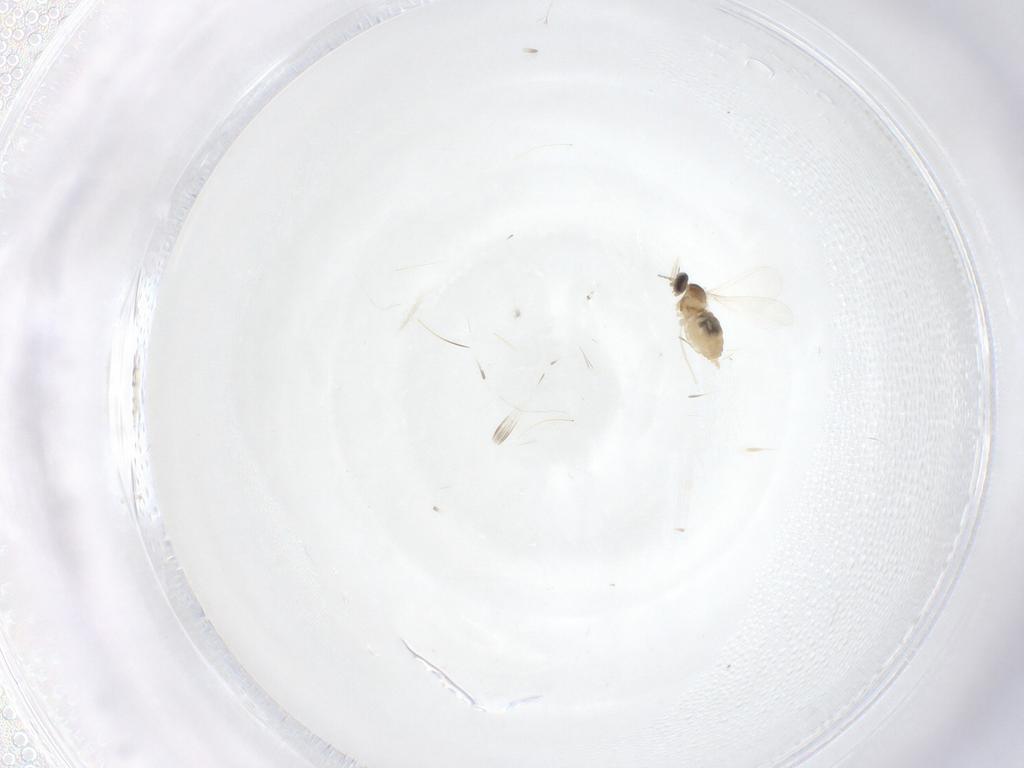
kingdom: Animalia
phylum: Arthropoda
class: Insecta
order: Diptera
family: Cecidomyiidae
